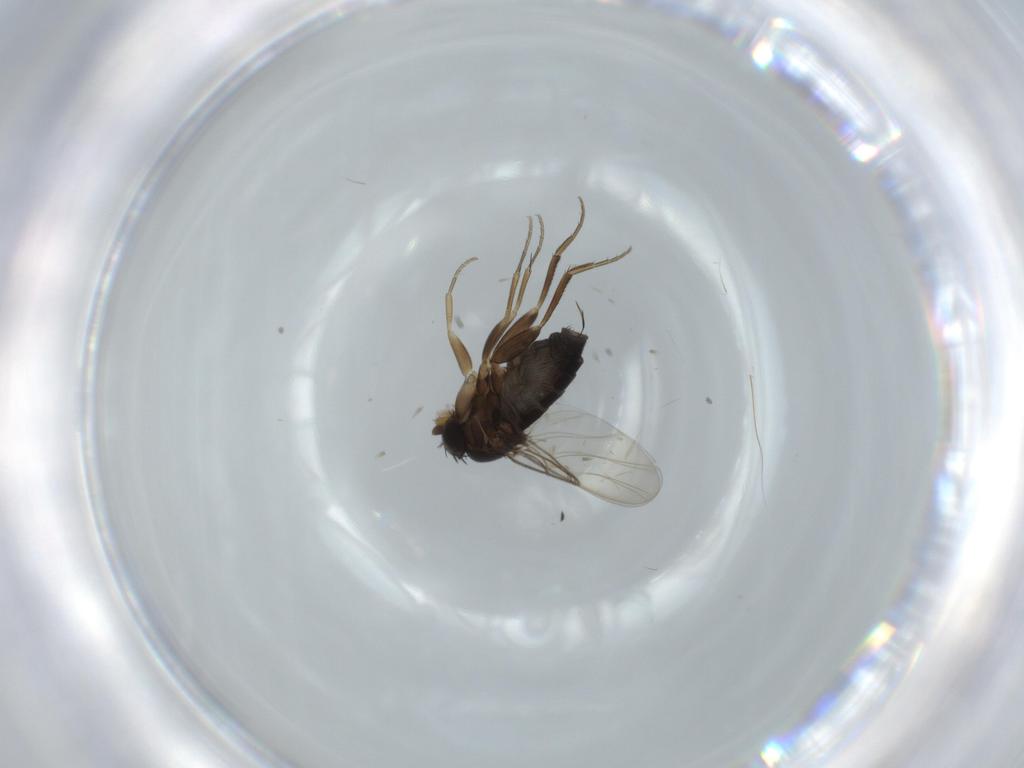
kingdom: Animalia
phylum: Arthropoda
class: Insecta
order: Diptera
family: Phoridae
